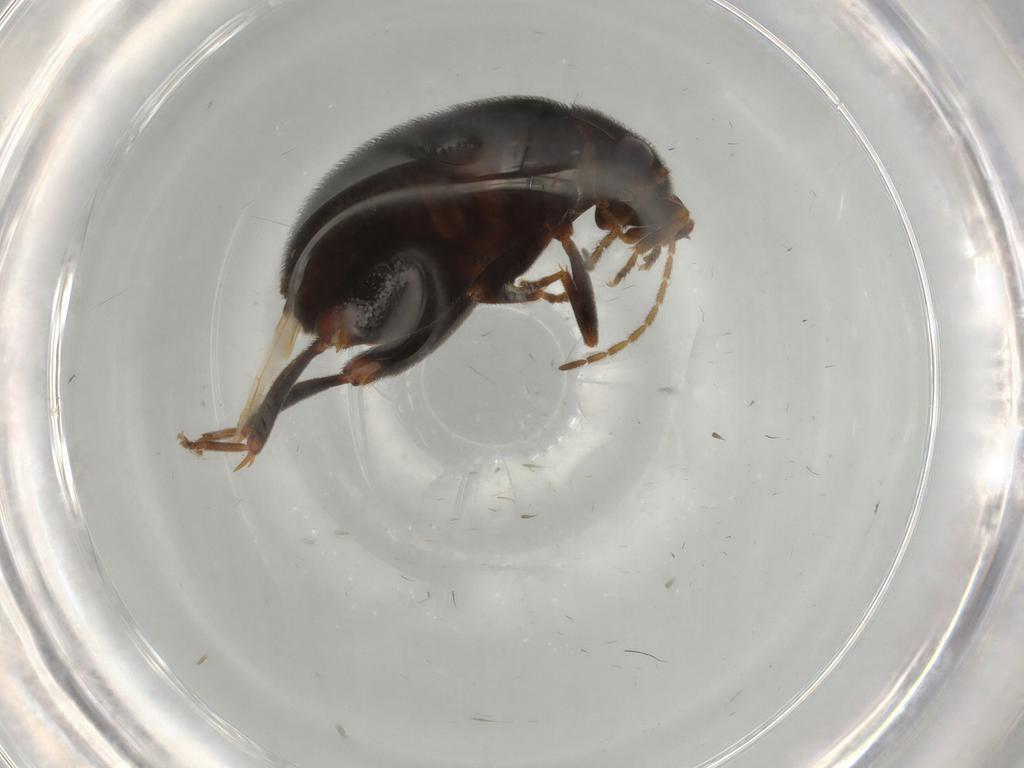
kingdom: Animalia
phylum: Arthropoda
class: Insecta
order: Coleoptera
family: Scirtidae
